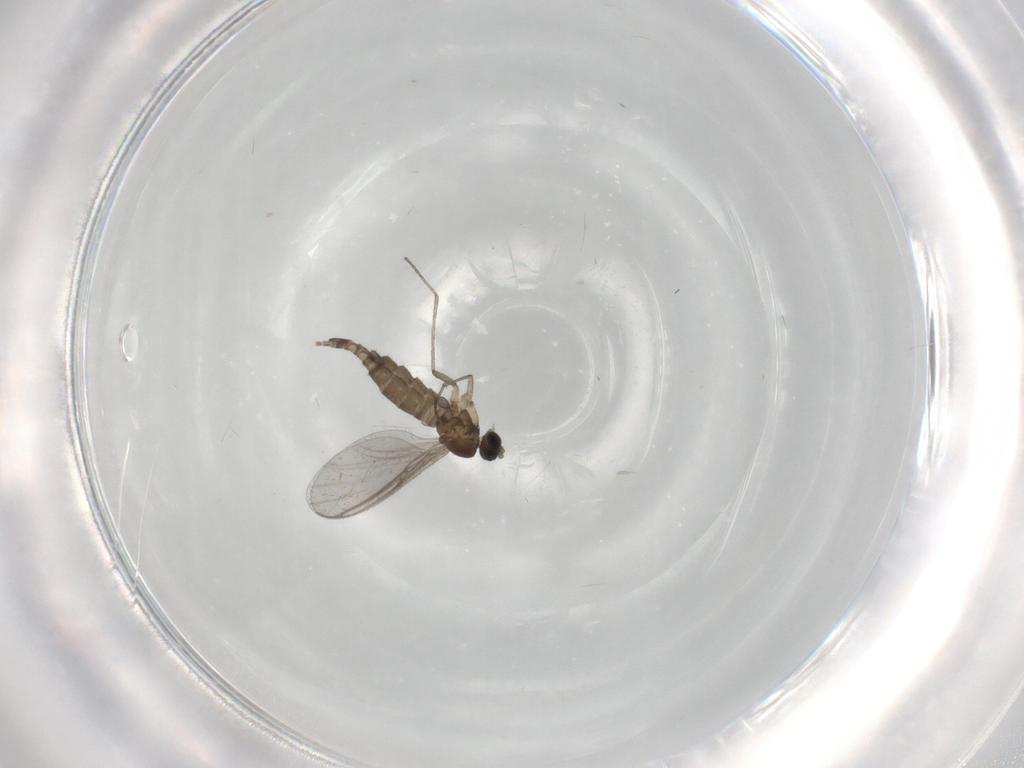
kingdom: Animalia
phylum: Arthropoda
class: Insecta
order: Diptera
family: Sciaridae
